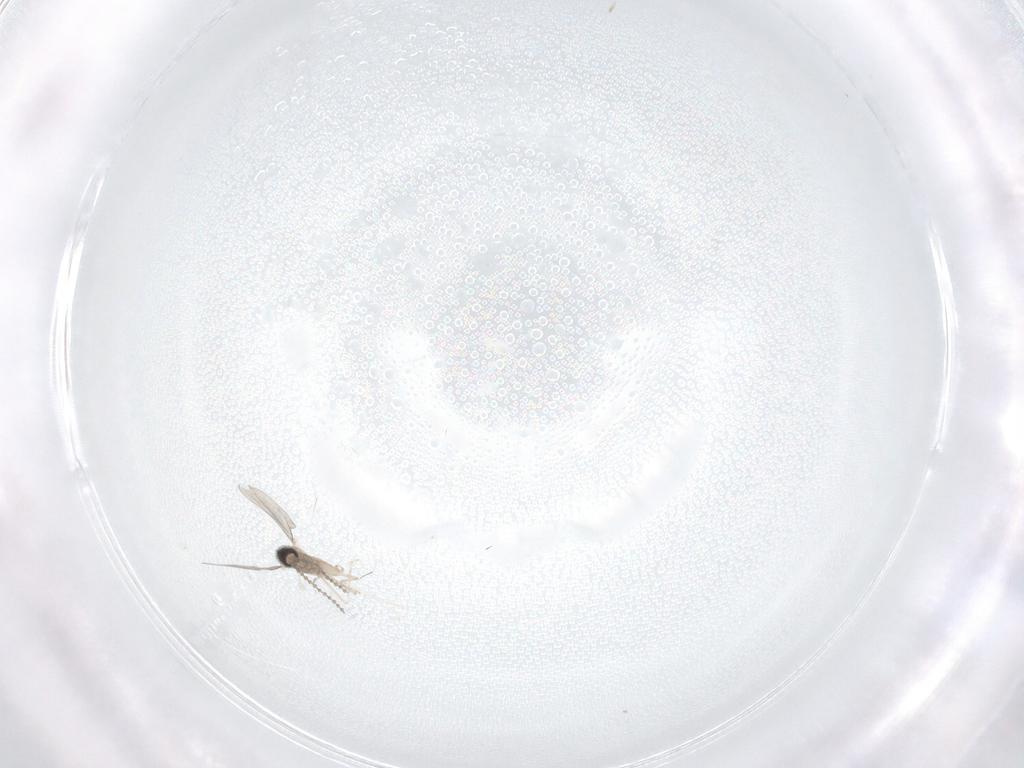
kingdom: Animalia
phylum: Arthropoda
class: Insecta
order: Diptera
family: Cecidomyiidae
